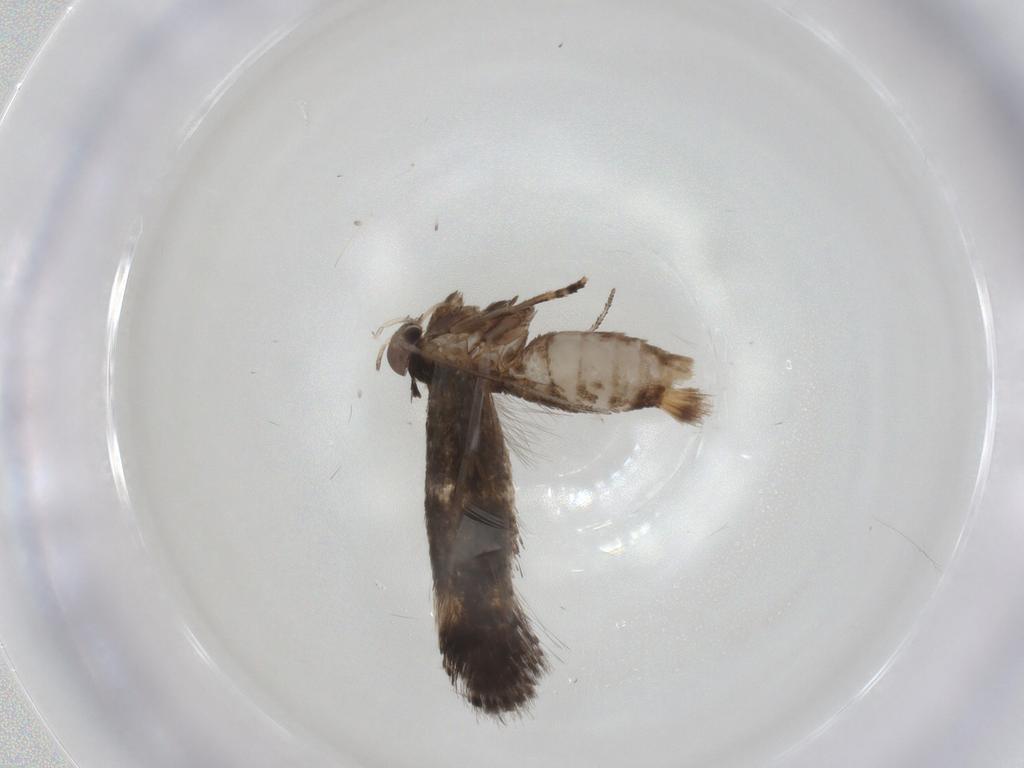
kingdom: Animalia
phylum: Arthropoda
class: Insecta
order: Lepidoptera
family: Elachistidae
